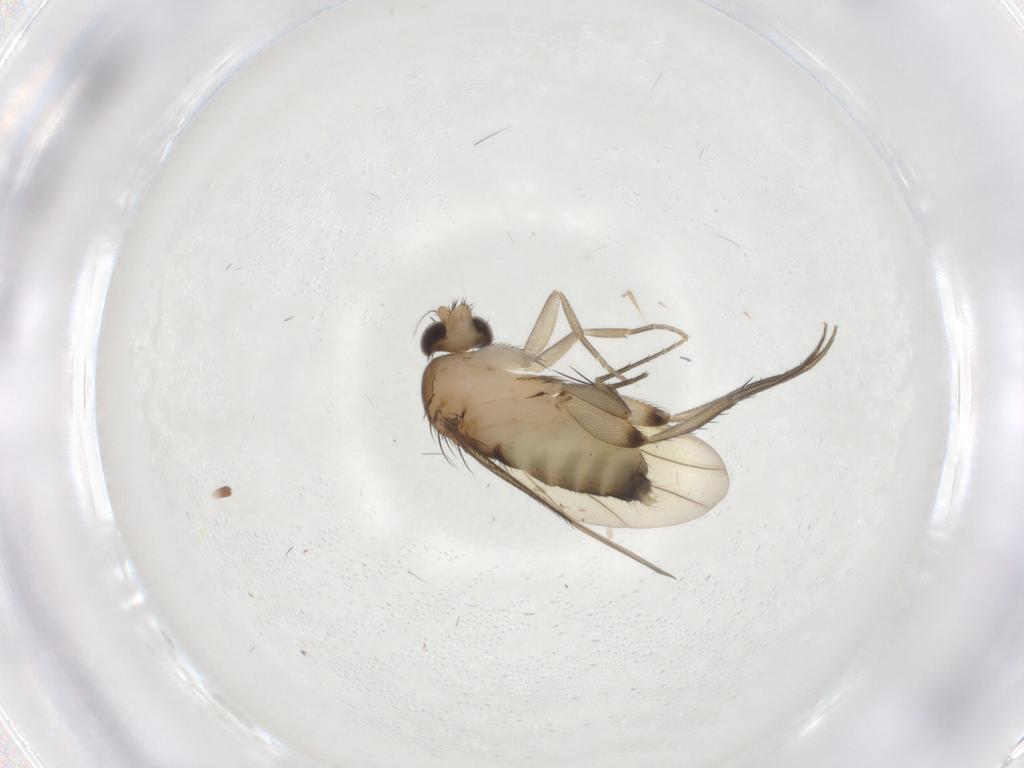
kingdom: Animalia
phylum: Arthropoda
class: Insecta
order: Diptera
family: Phoridae
